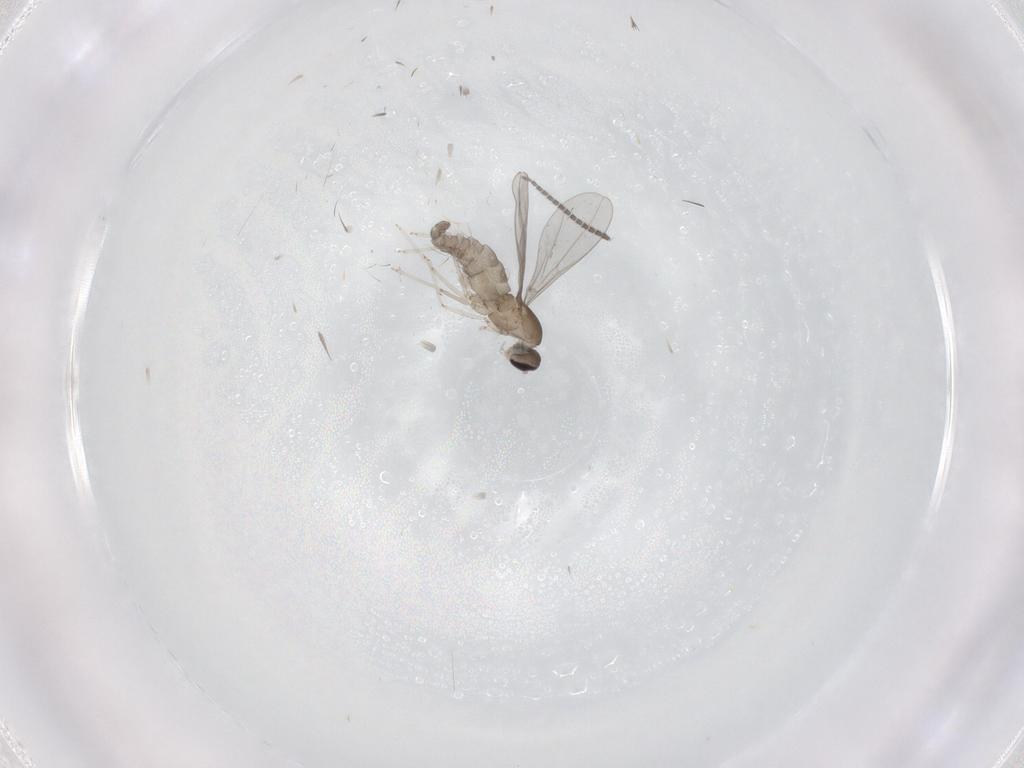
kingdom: Animalia
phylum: Arthropoda
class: Insecta
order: Diptera
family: Cecidomyiidae
